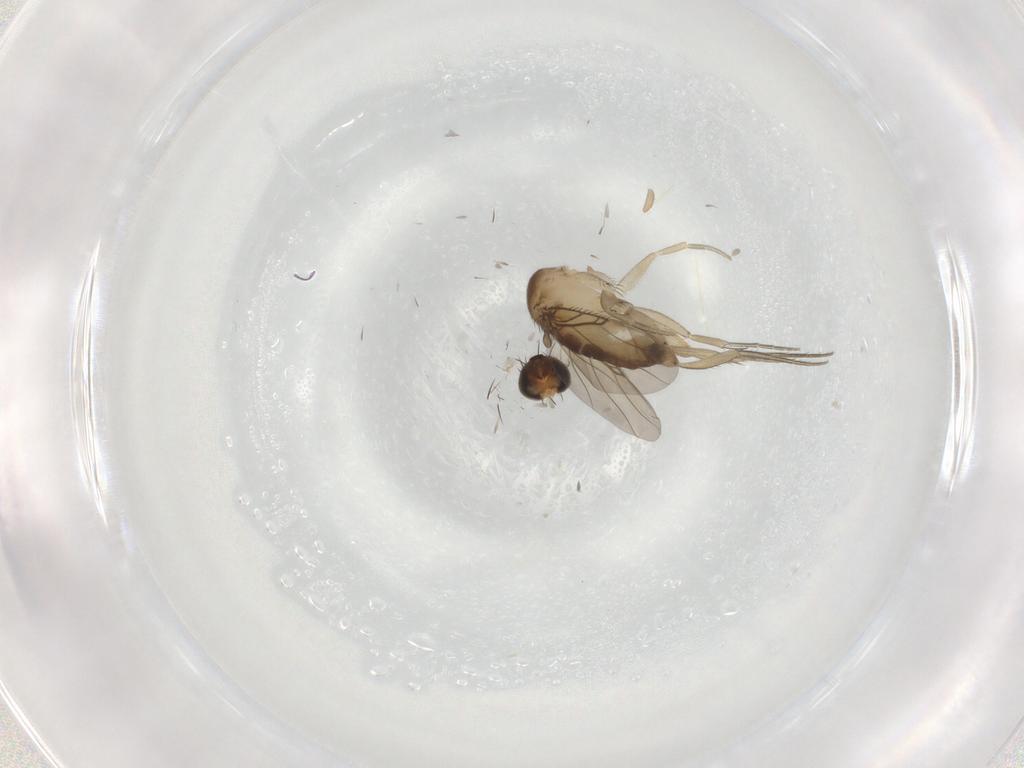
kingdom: Animalia
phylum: Arthropoda
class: Insecta
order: Diptera
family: Phoridae
